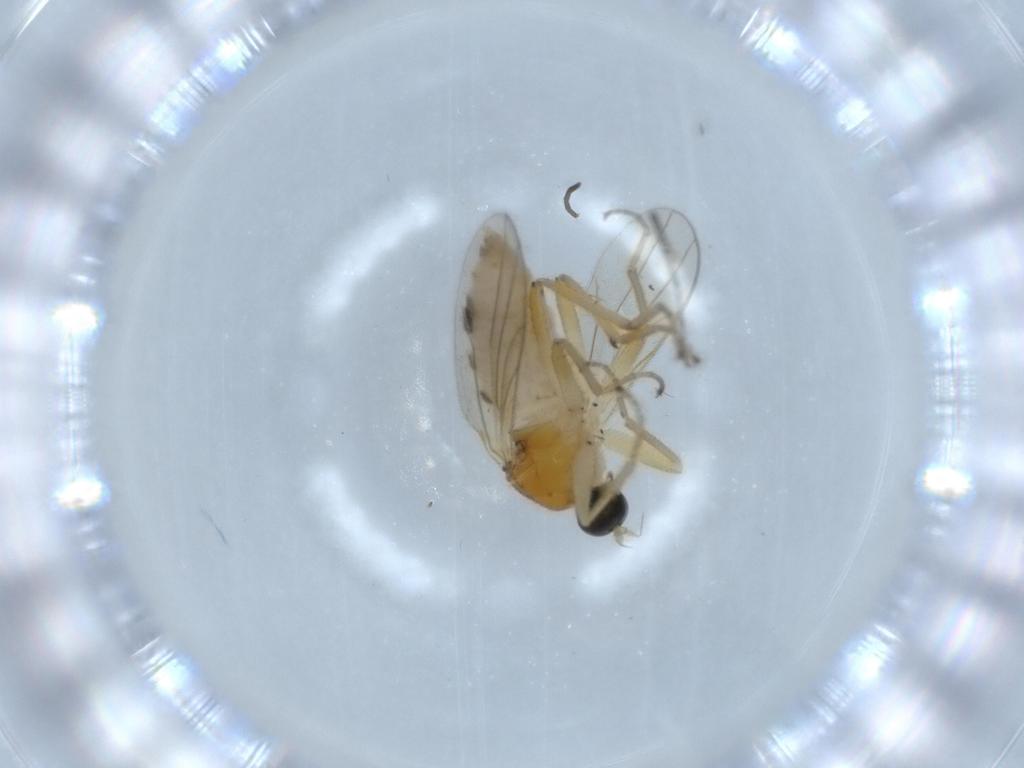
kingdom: Animalia
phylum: Arthropoda
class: Insecta
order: Diptera
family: Hybotidae
